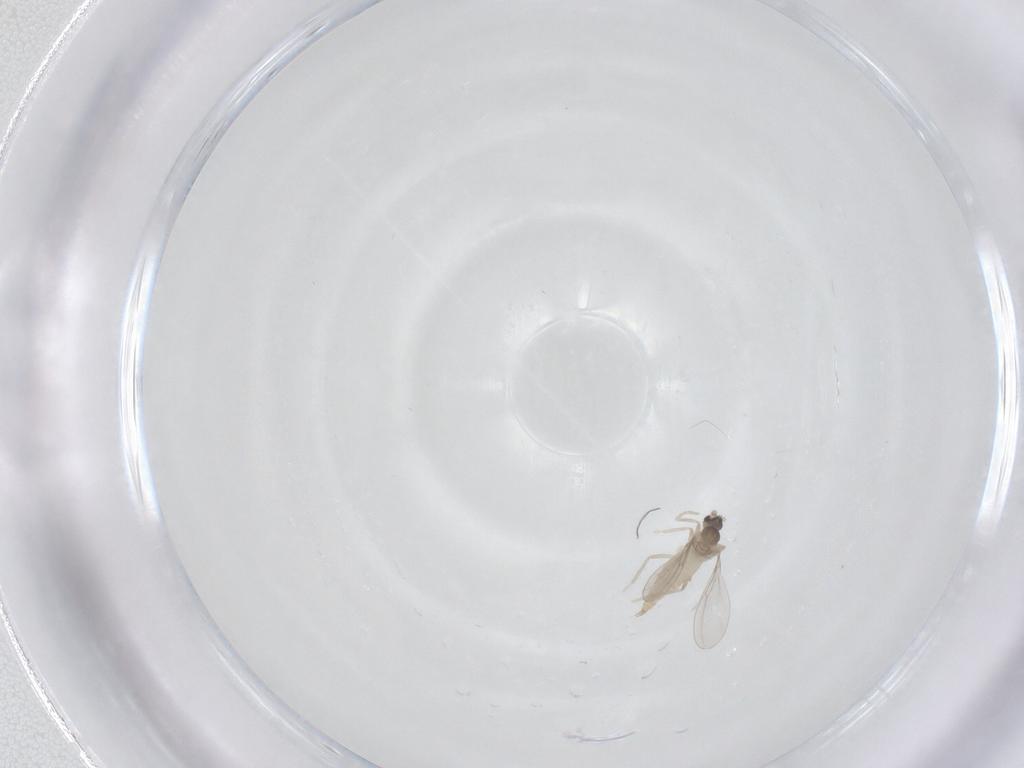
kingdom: Animalia
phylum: Arthropoda
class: Insecta
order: Diptera
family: Cecidomyiidae
